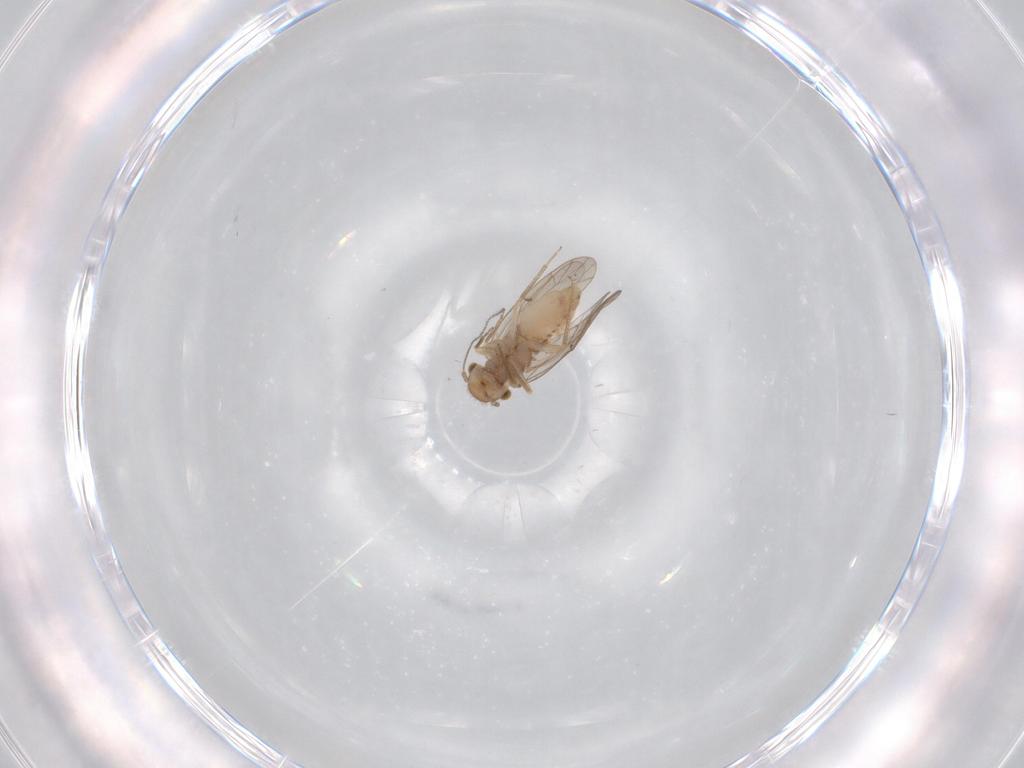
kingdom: Animalia
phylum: Arthropoda
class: Insecta
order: Psocodea
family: Ectopsocidae
